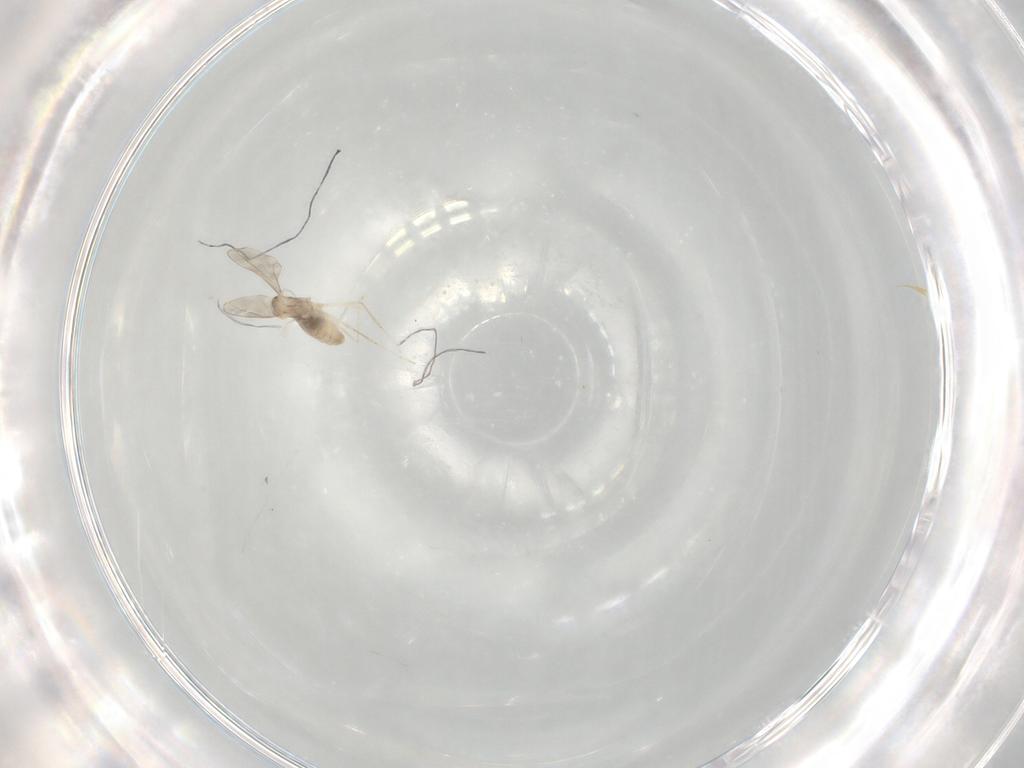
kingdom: Animalia
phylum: Arthropoda
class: Insecta
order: Diptera
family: Cecidomyiidae
